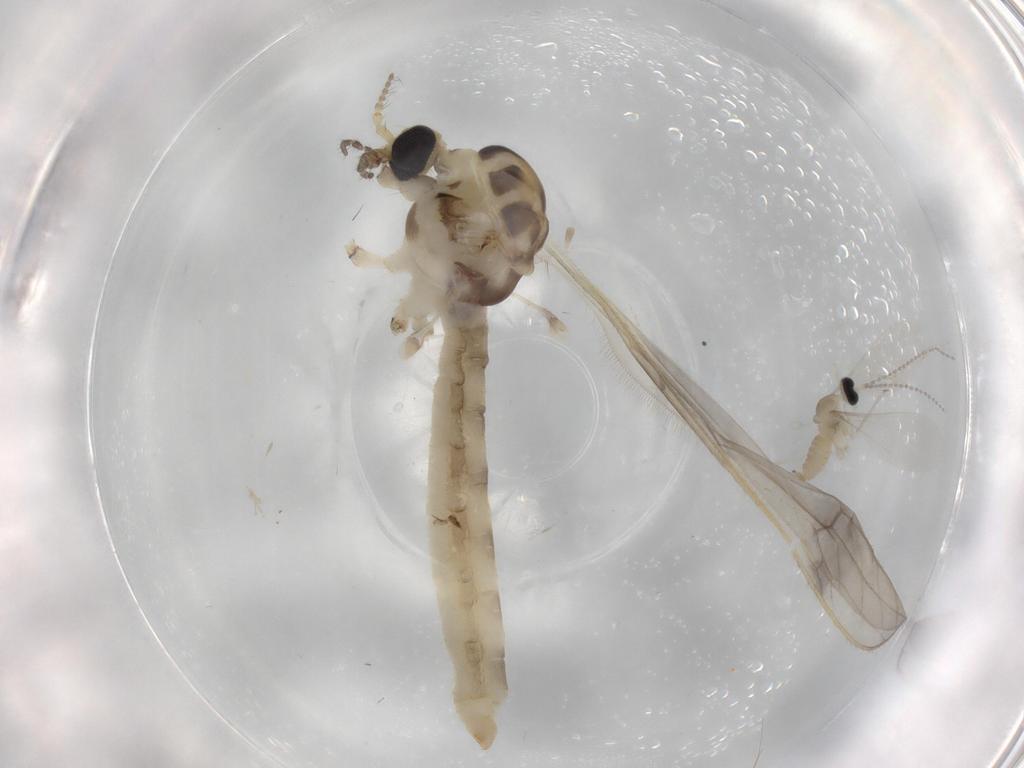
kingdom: Animalia
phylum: Arthropoda
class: Insecta
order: Diptera
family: Cecidomyiidae
